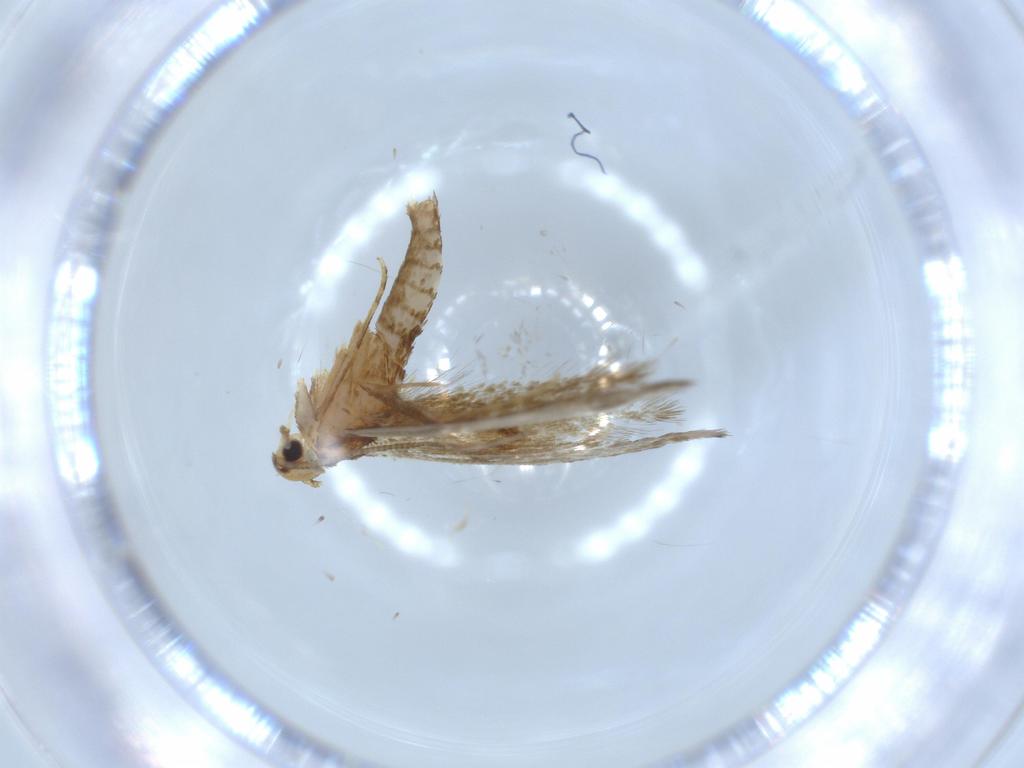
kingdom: Animalia
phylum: Arthropoda
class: Insecta
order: Lepidoptera
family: Tineidae
